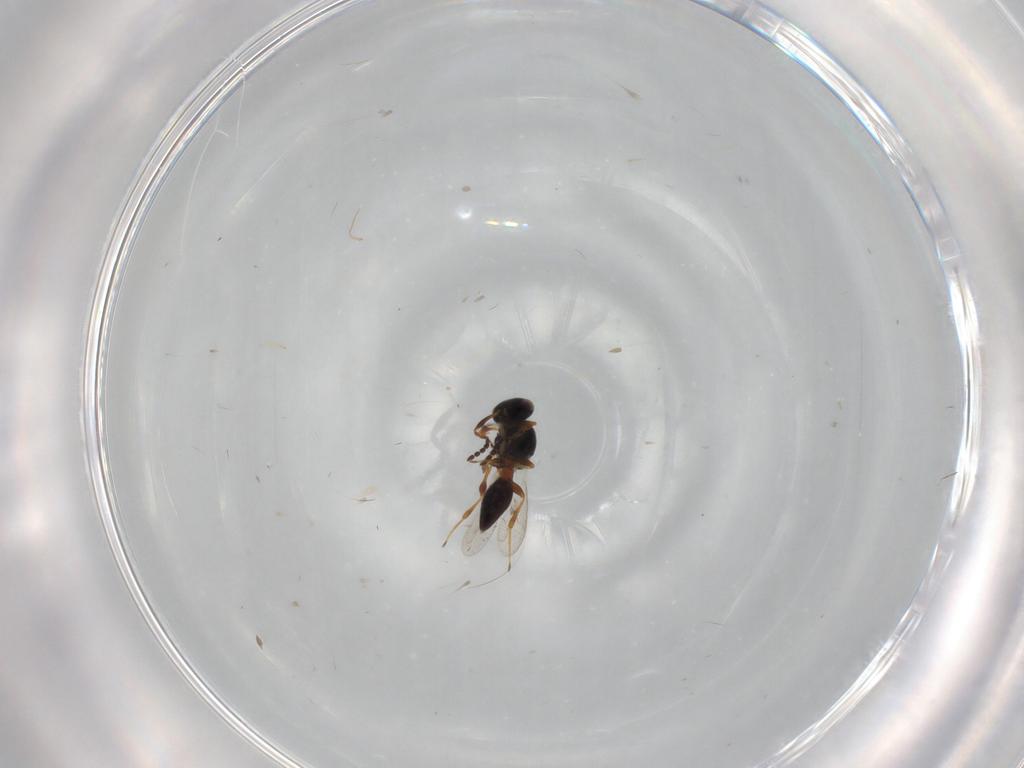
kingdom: Animalia
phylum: Arthropoda
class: Insecta
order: Hymenoptera
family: Platygastridae
